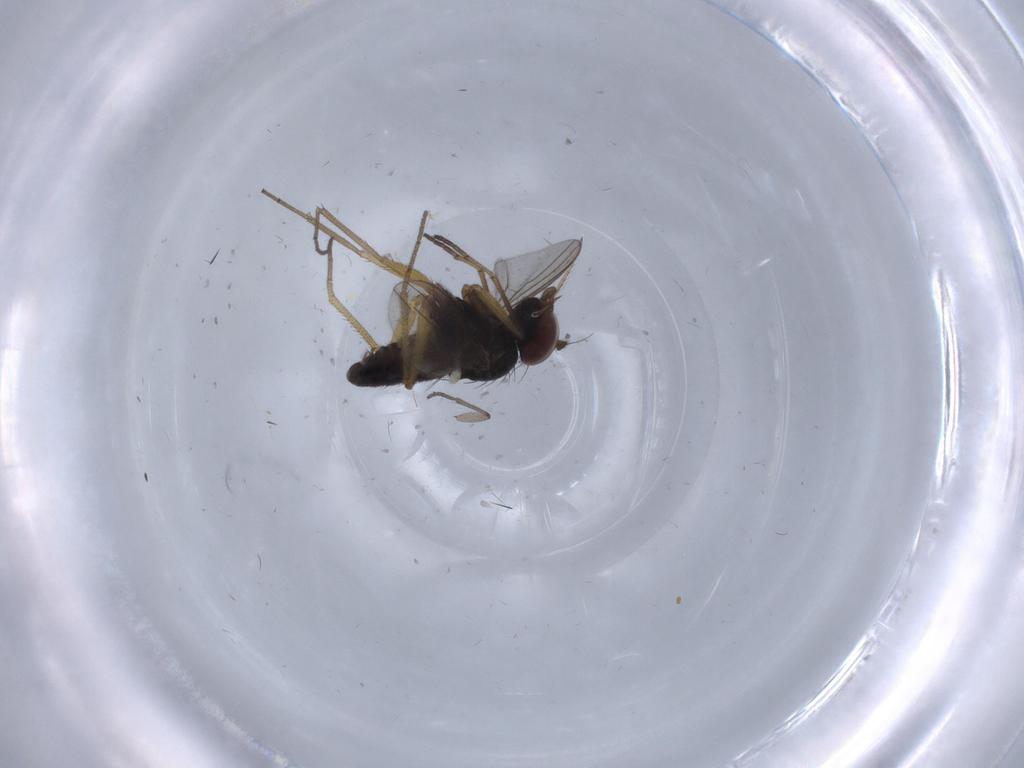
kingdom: Animalia
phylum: Arthropoda
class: Insecta
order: Diptera
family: Dolichopodidae
